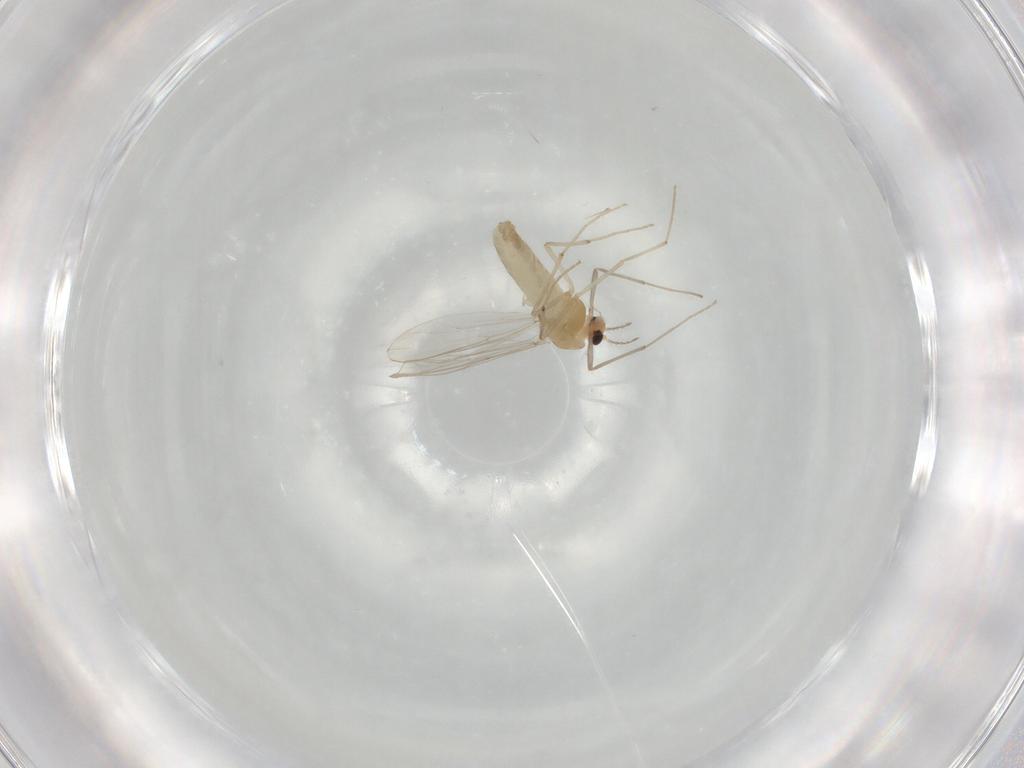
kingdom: Animalia
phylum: Arthropoda
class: Insecta
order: Diptera
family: Chironomidae
